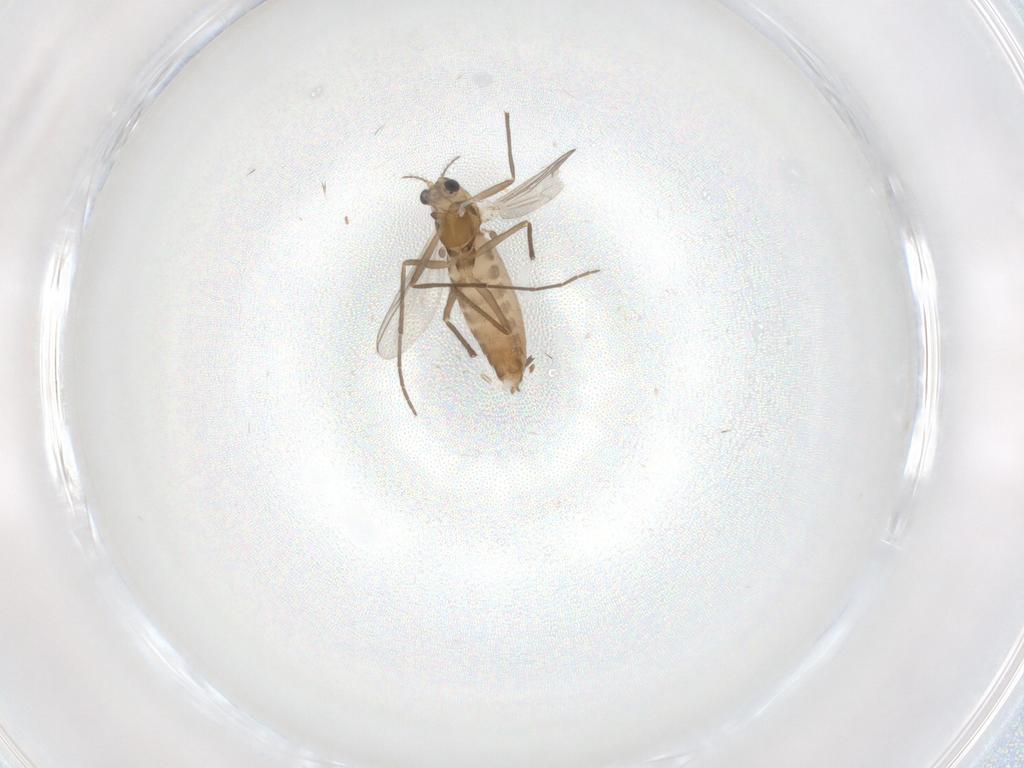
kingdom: Animalia
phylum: Arthropoda
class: Insecta
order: Diptera
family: Chironomidae
